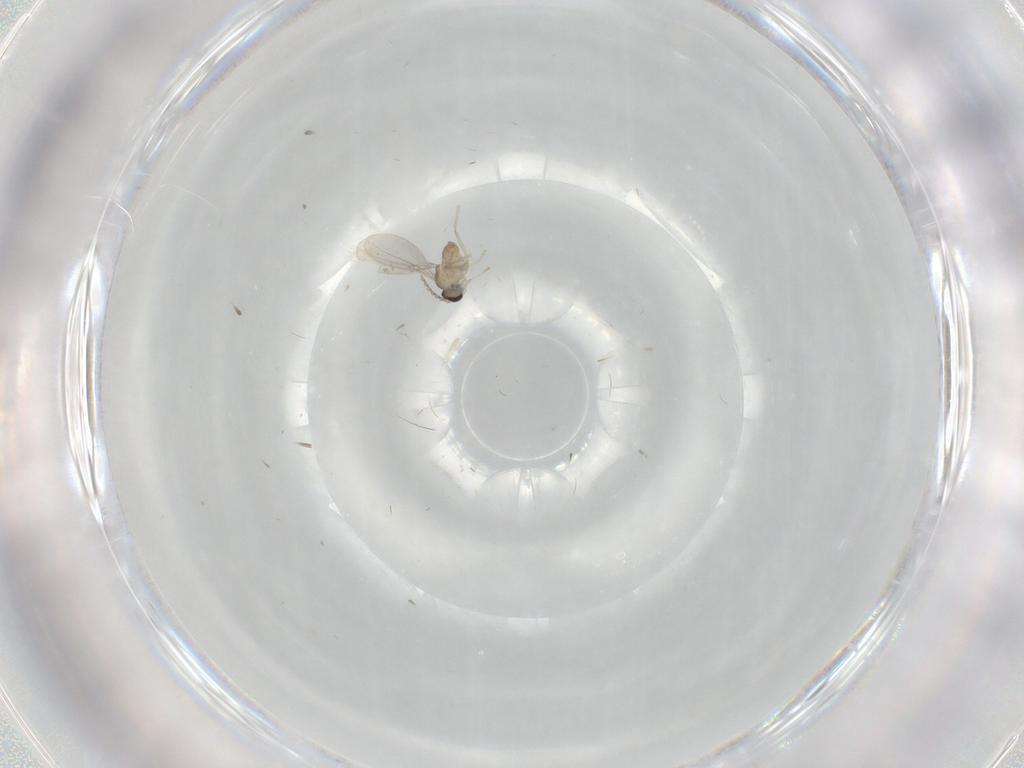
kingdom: Animalia
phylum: Arthropoda
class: Insecta
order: Diptera
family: Cecidomyiidae
